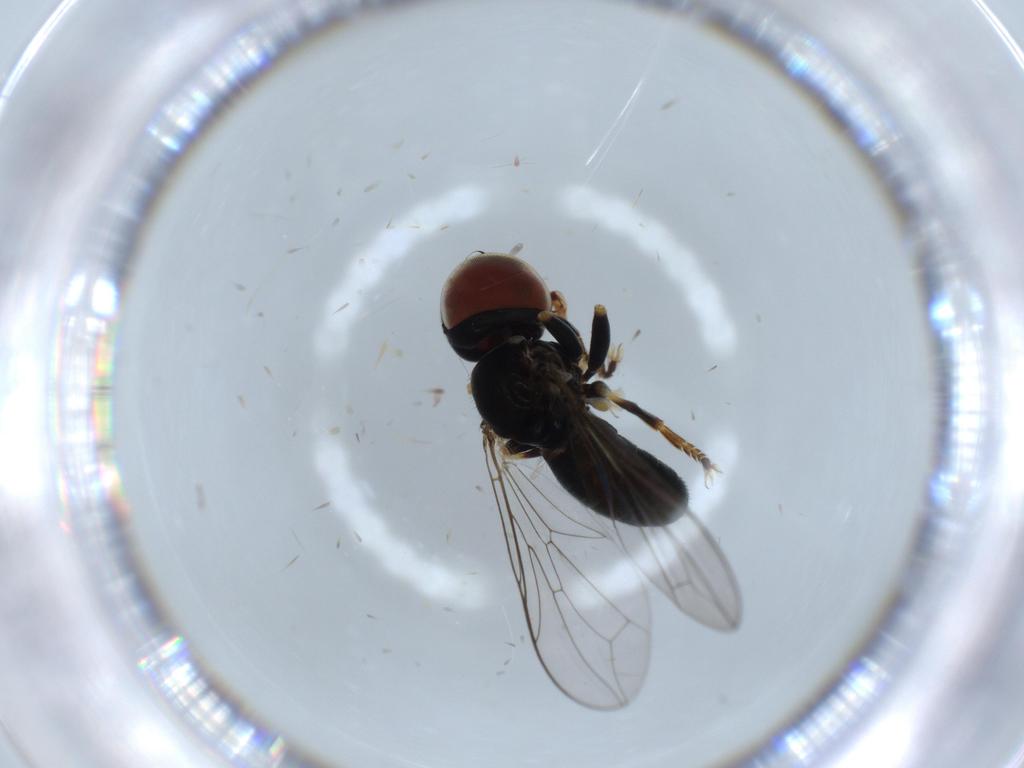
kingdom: Animalia
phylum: Arthropoda
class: Insecta
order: Diptera
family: Pipunculidae
